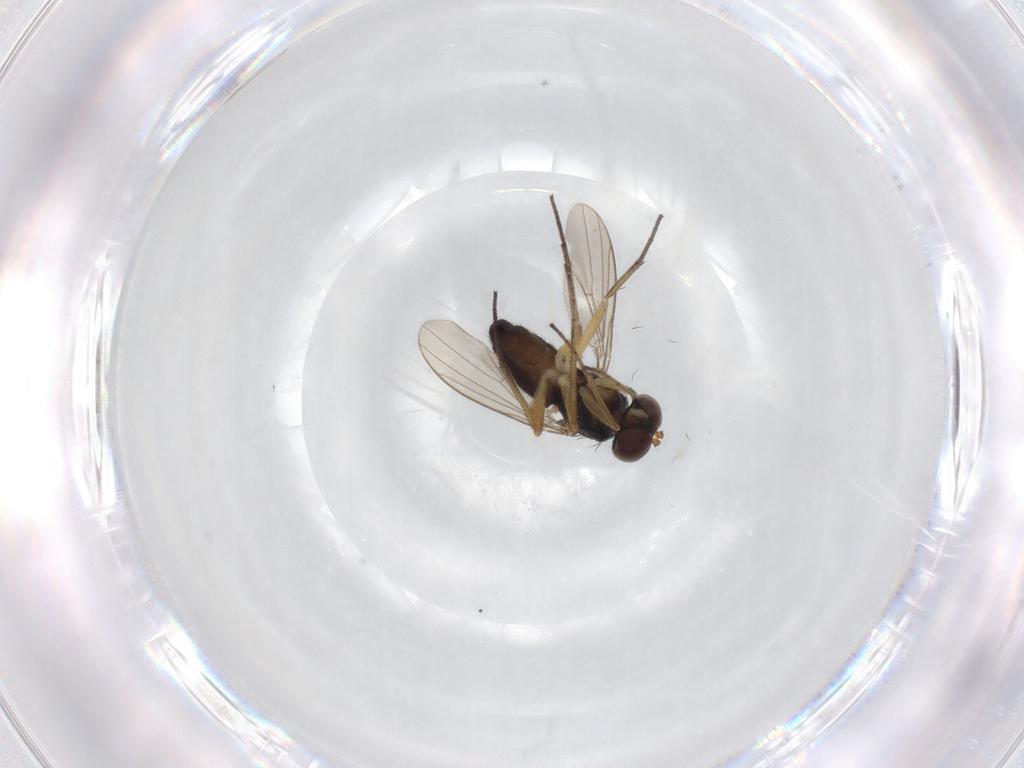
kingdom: Animalia
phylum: Arthropoda
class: Insecta
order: Diptera
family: Dolichopodidae
